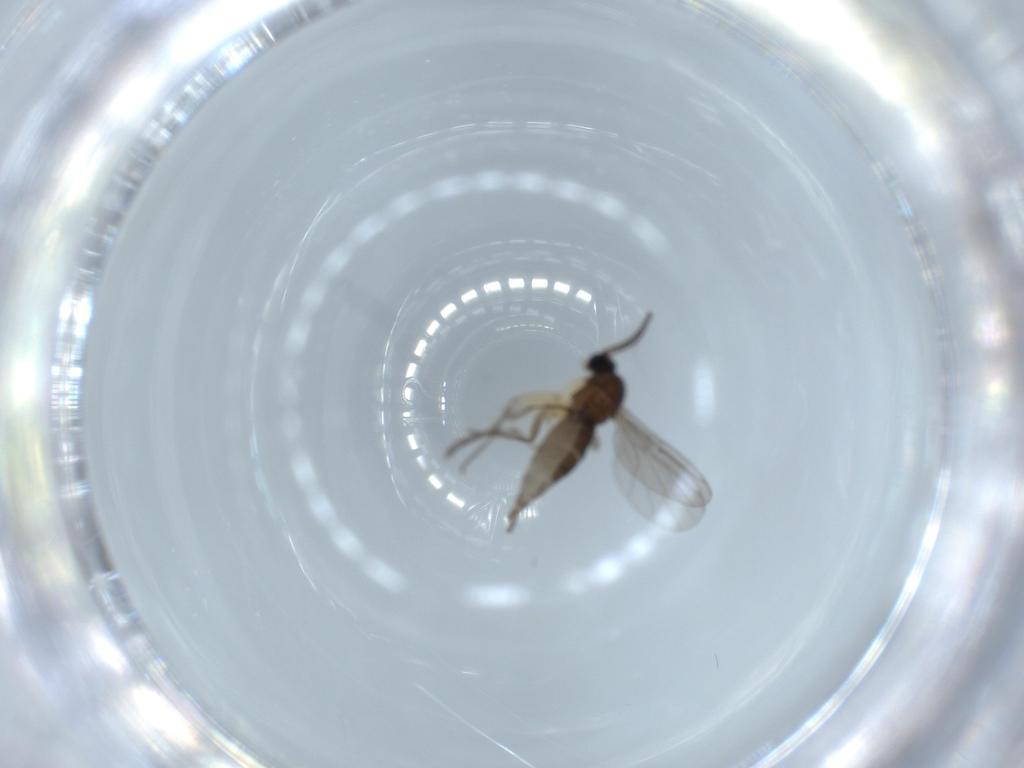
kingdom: Animalia
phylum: Arthropoda
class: Insecta
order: Diptera
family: Sciaridae
